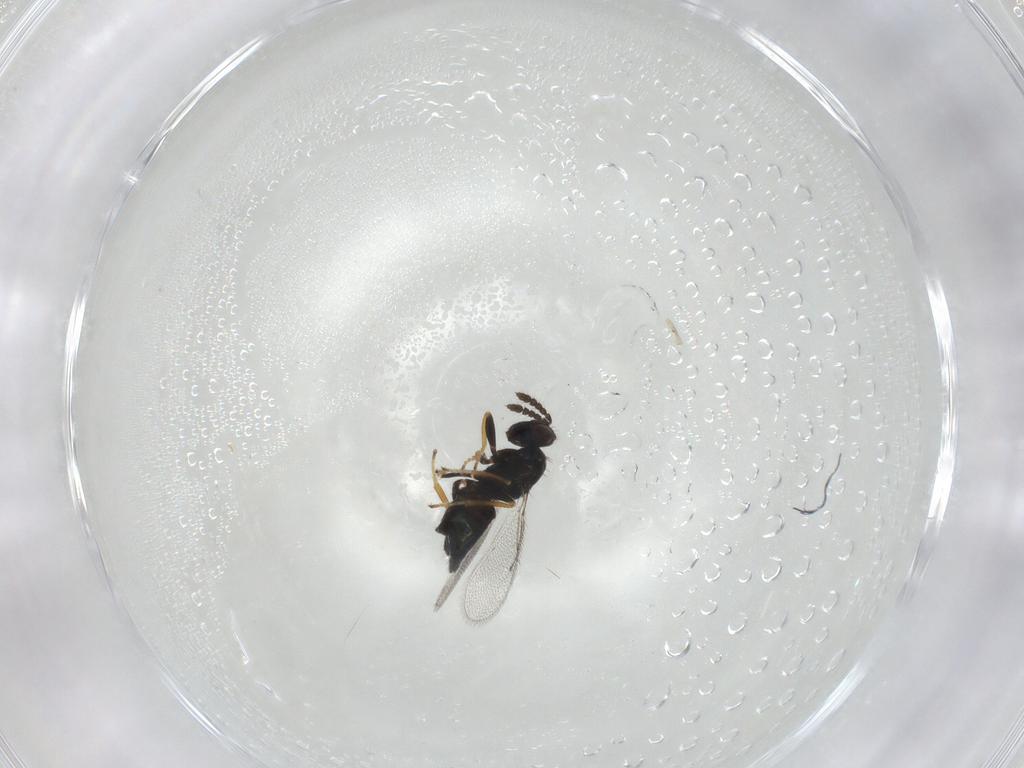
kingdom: Animalia
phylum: Arthropoda
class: Insecta
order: Hymenoptera
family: Eulophidae
